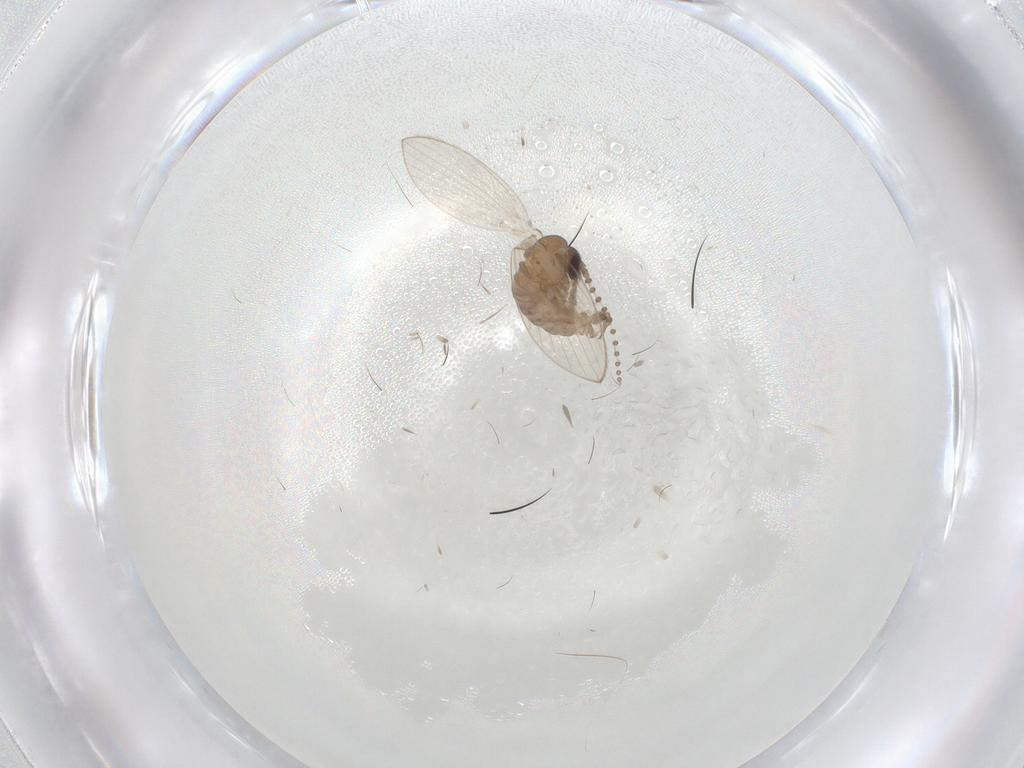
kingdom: Animalia
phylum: Arthropoda
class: Insecta
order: Diptera
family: Psychodidae
